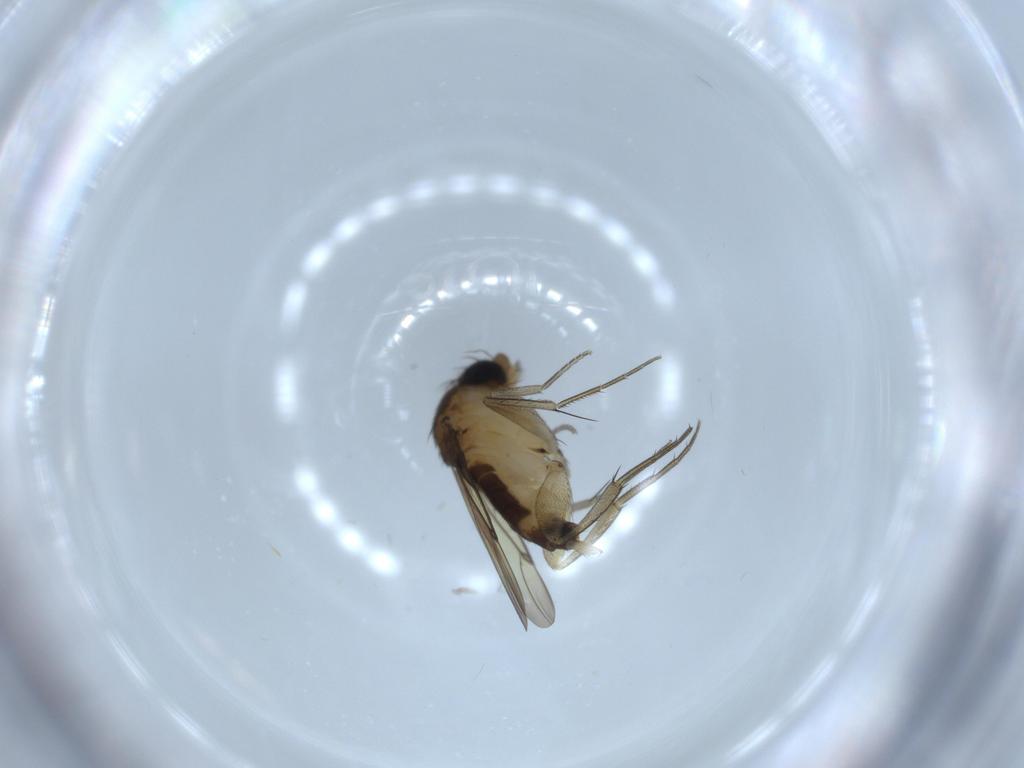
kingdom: Animalia
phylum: Arthropoda
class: Insecta
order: Diptera
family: Phoridae
